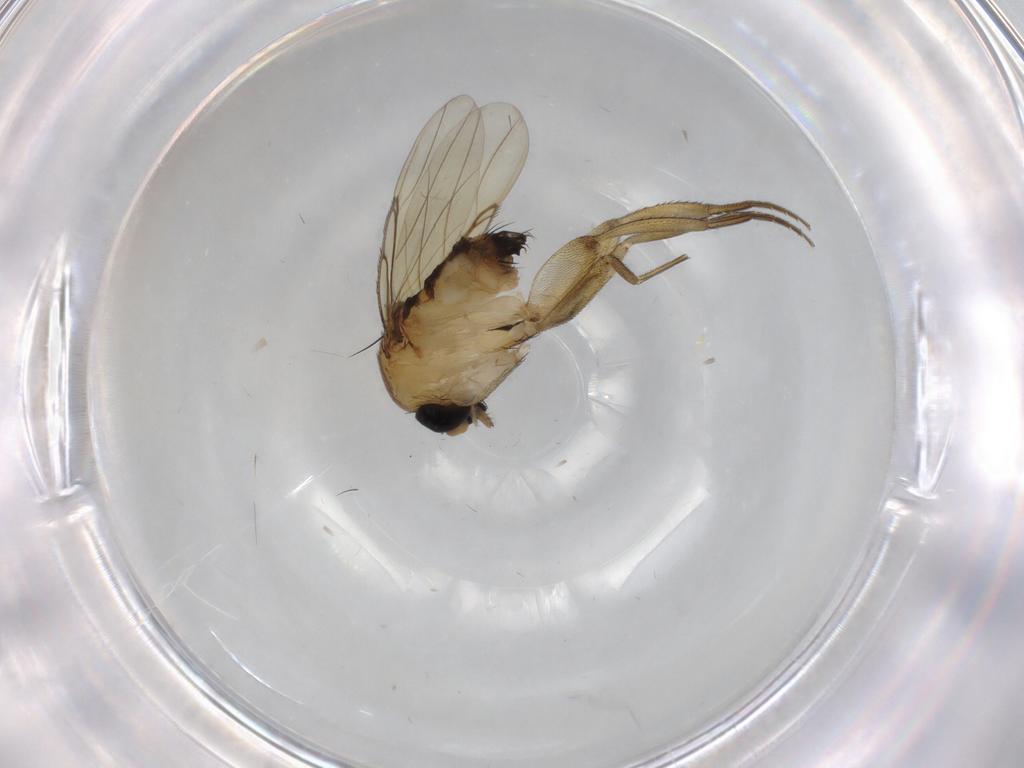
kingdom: Animalia
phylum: Arthropoda
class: Insecta
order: Diptera
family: Phoridae
